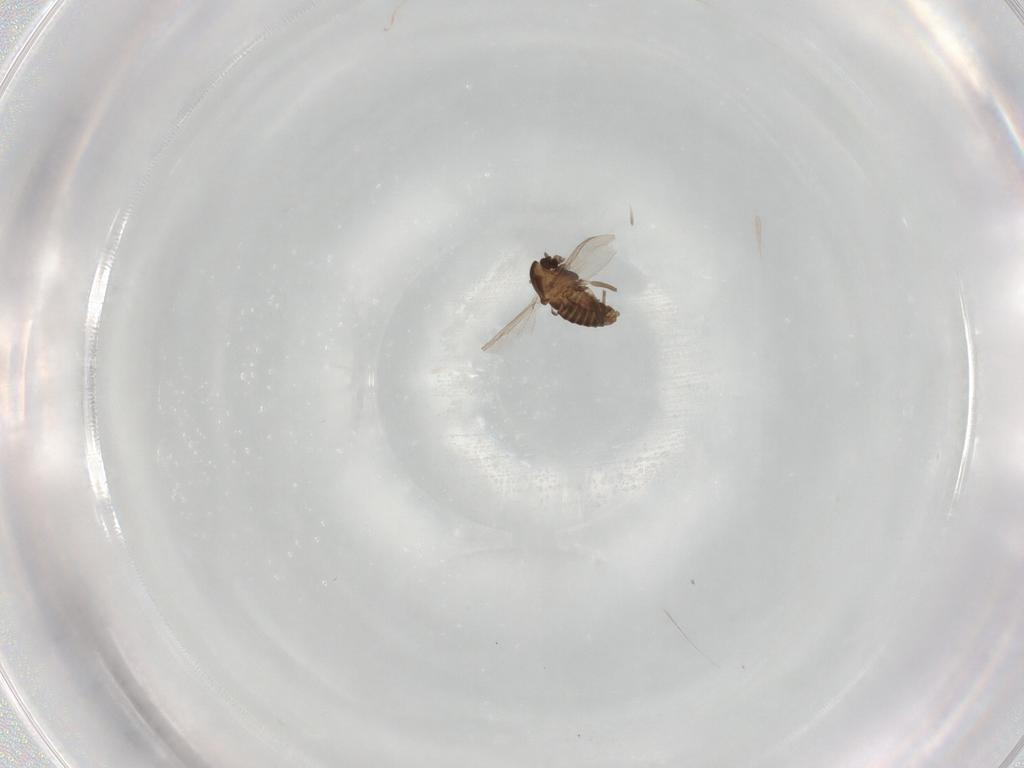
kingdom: Animalia
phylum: Arthropoda
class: Insecta
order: Diptera
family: Chironomidae
